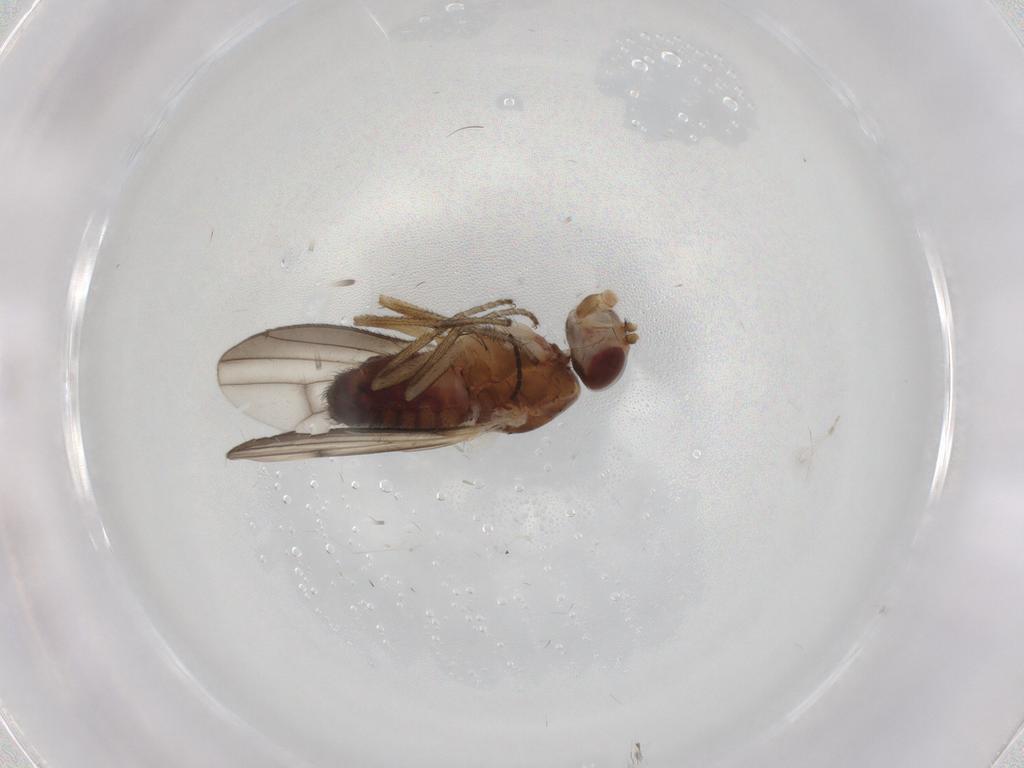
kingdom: Animalia
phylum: Arthropoda
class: Insecta
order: Diptera
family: Heleomyzidae
